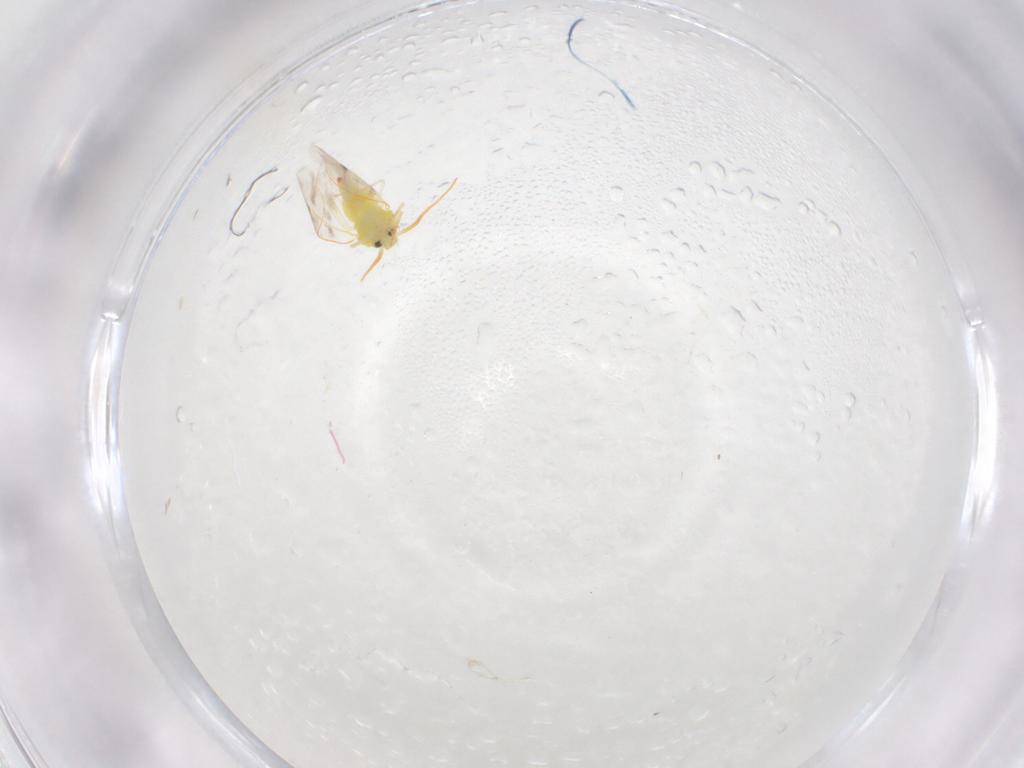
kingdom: Animalia
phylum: Arthropoda
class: Insecta
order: Hemiptera
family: Aleyrodidae
